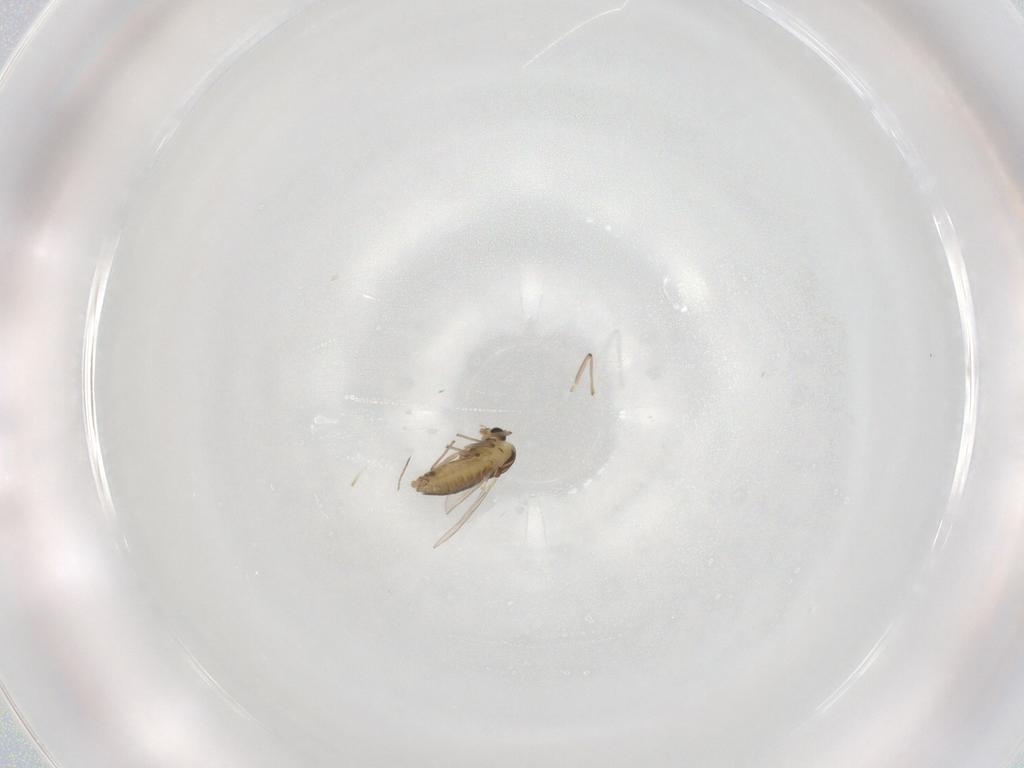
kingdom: Animalia
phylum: Arthropoda
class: Insecta
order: Diptera
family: Chironomidae
